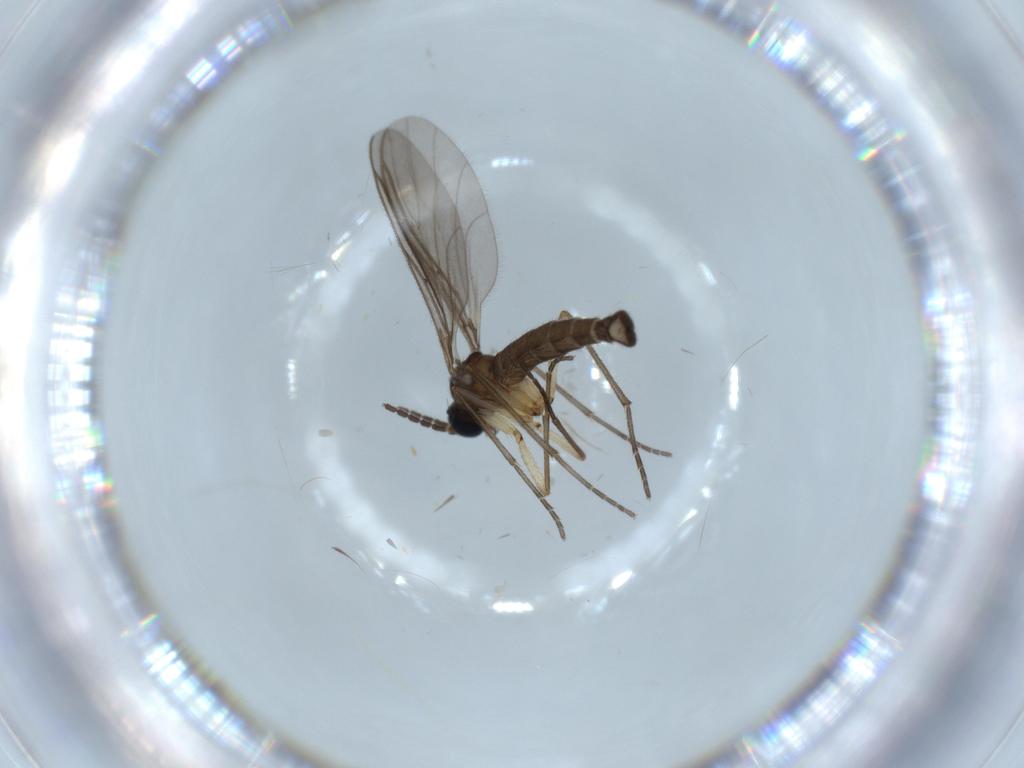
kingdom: Animalia
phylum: Arthropoda
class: Insecta
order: Diptera
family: Sciaridae
